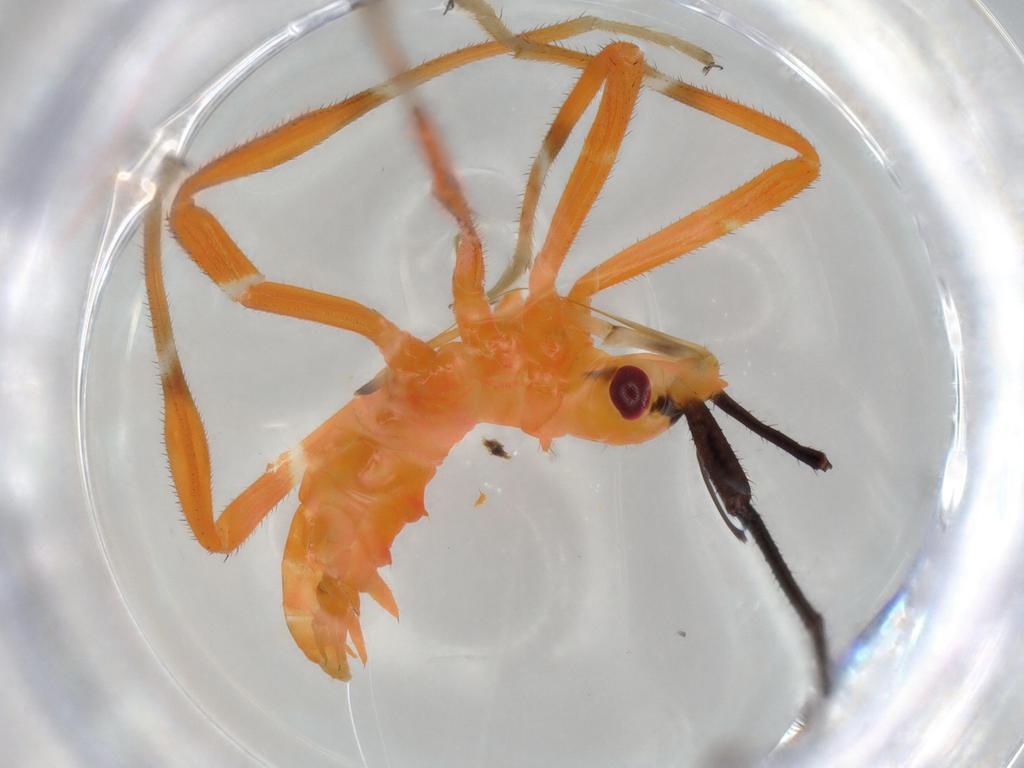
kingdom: Animalia
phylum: Arthropoda
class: Insecta
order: Hemiptera
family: Coreidae
